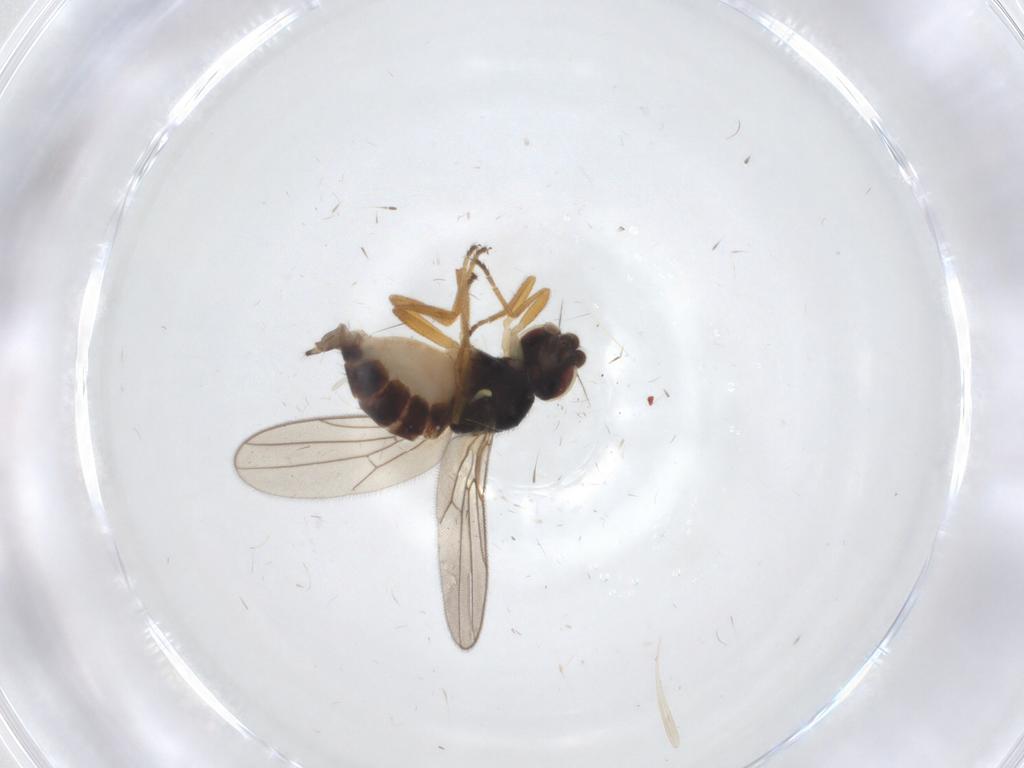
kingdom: Animalia
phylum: Arthropoda
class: Insecta
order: Diptera
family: Chloropidae
